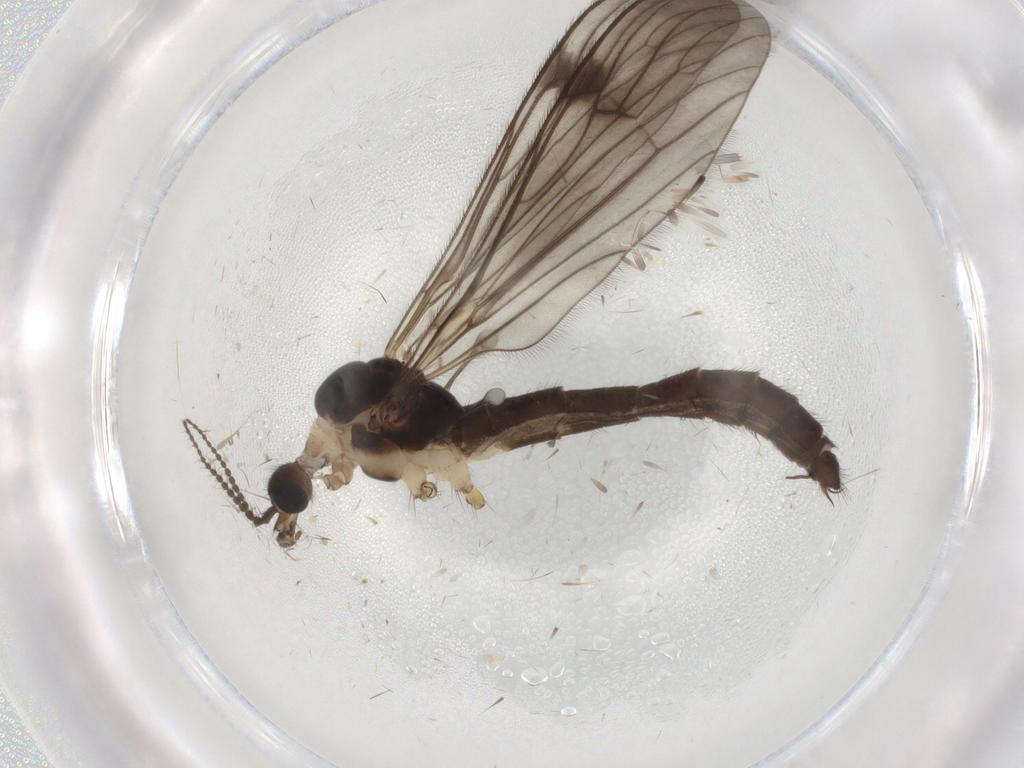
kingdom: Animalia
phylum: Arthropoda
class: Insecta
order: Diptera
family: Limoniidae
